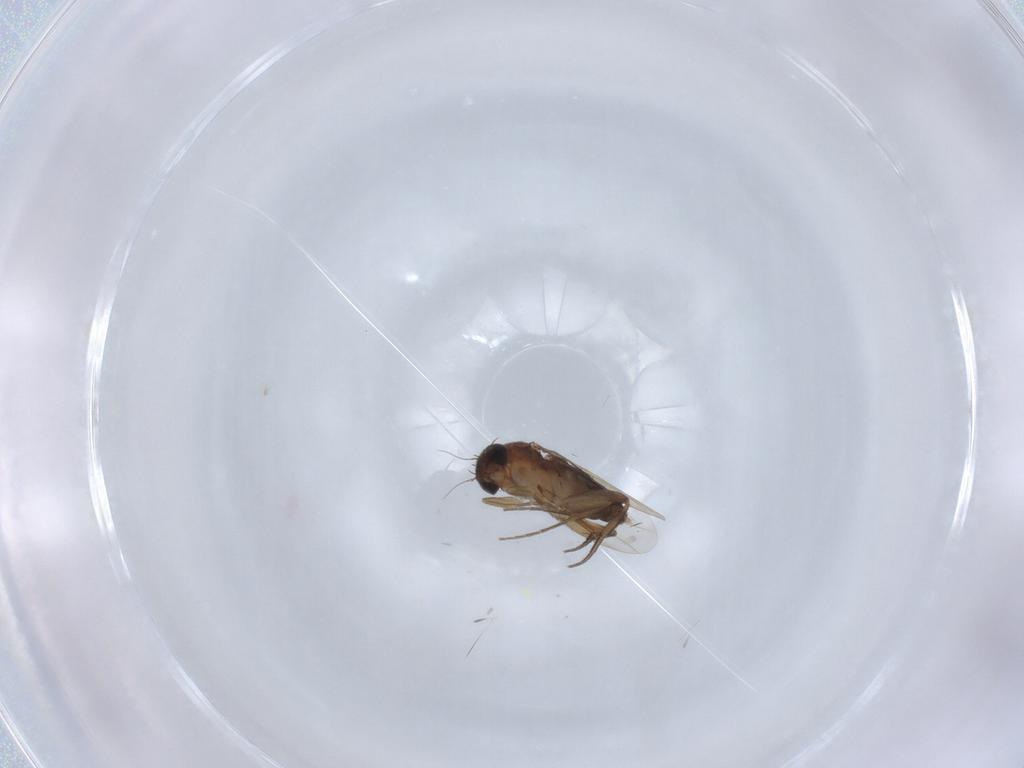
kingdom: Animalia
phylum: Arthropoda
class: Insecta
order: Diptera
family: Phoridae
